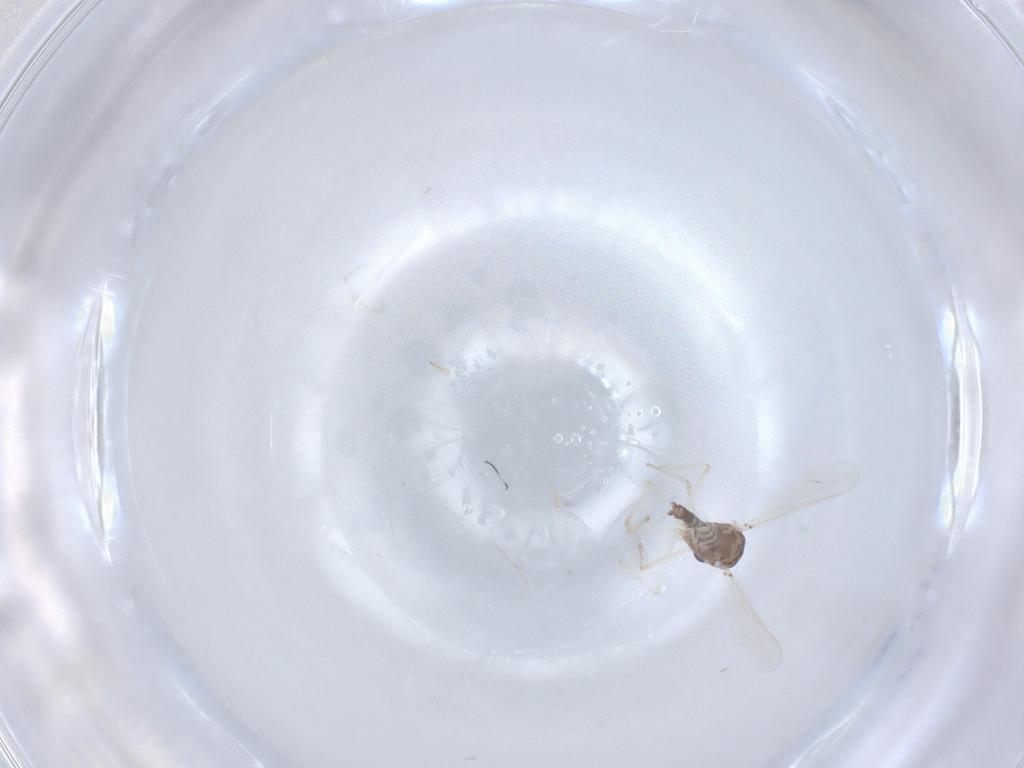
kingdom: Animalia
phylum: Arthropoda
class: Insecta
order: Diptera
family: Chironomidae
